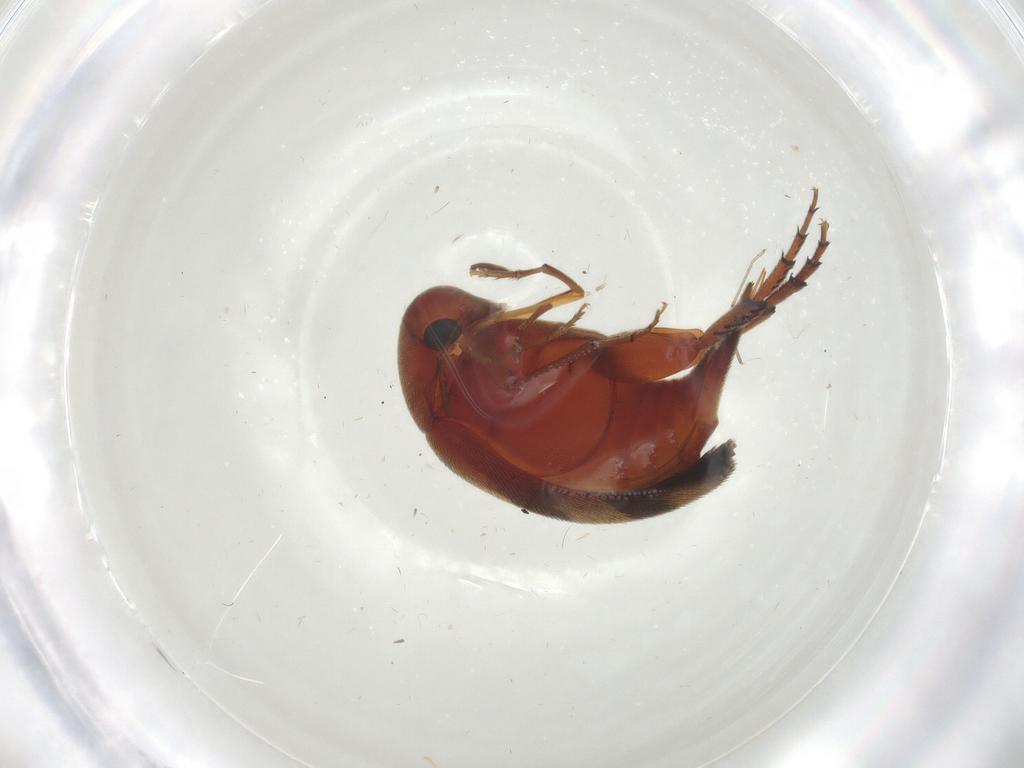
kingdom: Animalia
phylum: Arthropoda
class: Insecta
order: Coleoptera
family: Mordellidae
